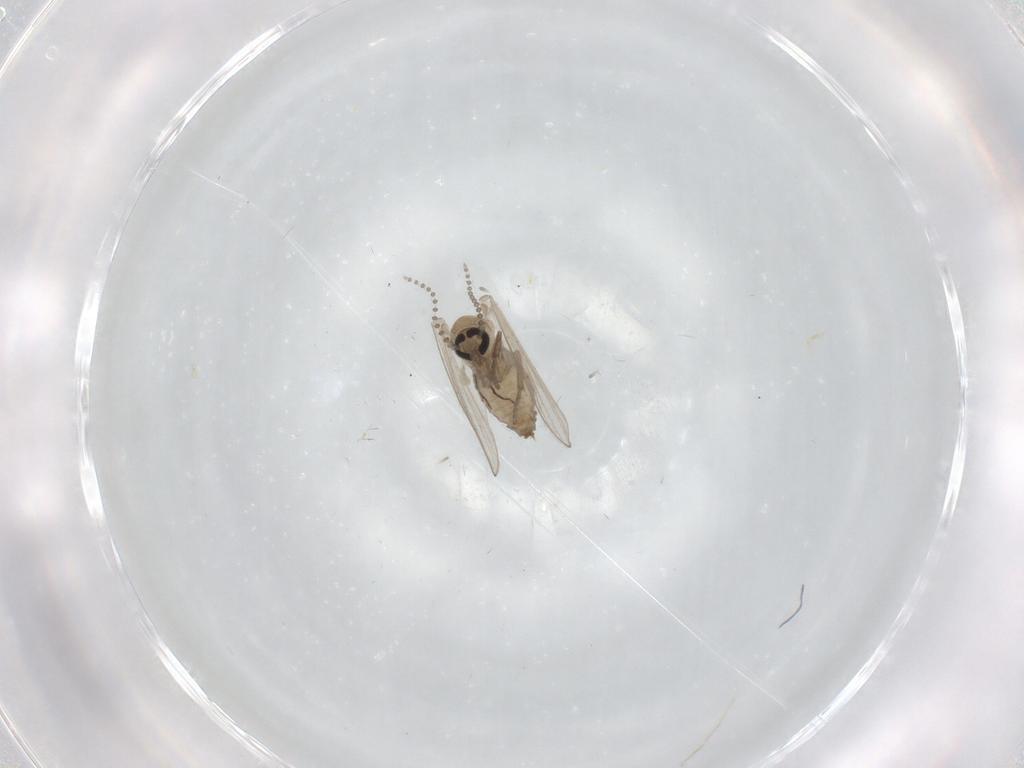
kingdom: Animalia
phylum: Arthropoda
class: Insecta
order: Diptera
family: Psychodidae
